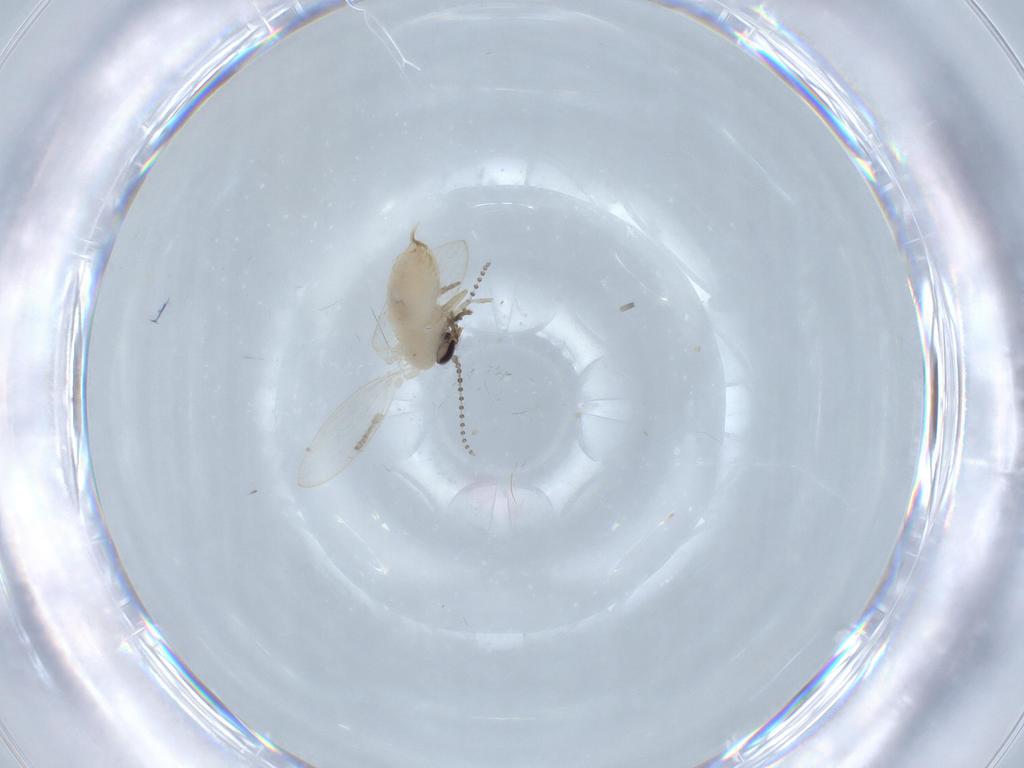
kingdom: Animalia
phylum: Arthropoda
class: Insecta
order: Diptera
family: Psychodidae
